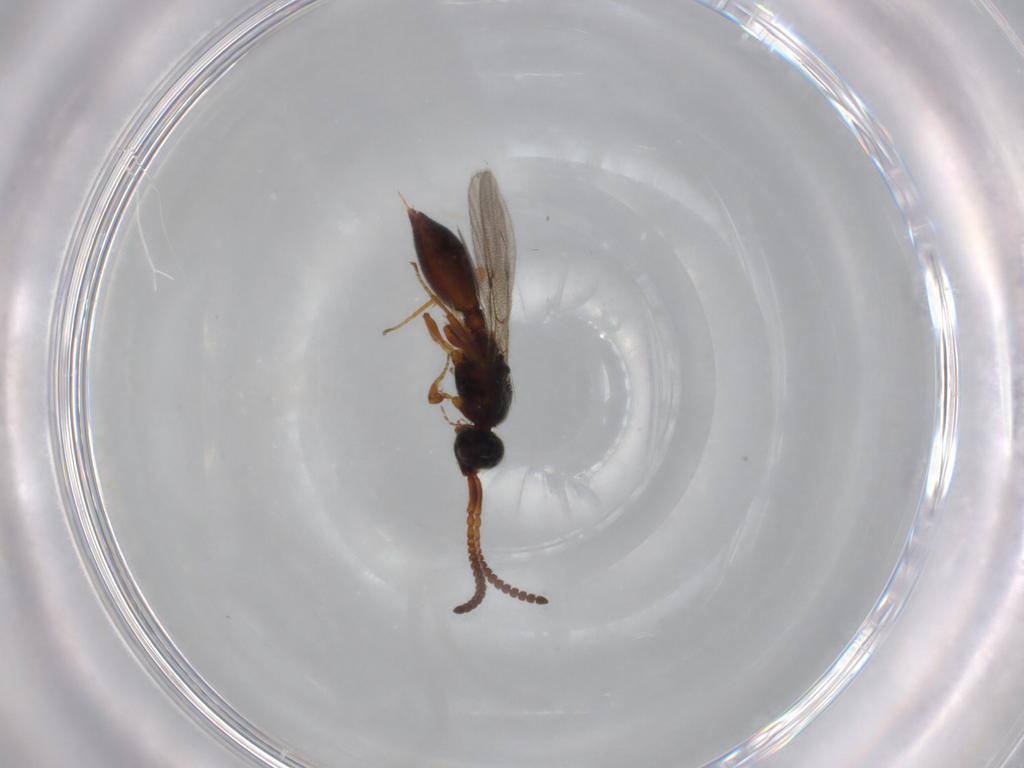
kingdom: Animalia
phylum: Arthropoda
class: Insecta
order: Hymenoptera
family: Diapriidae
